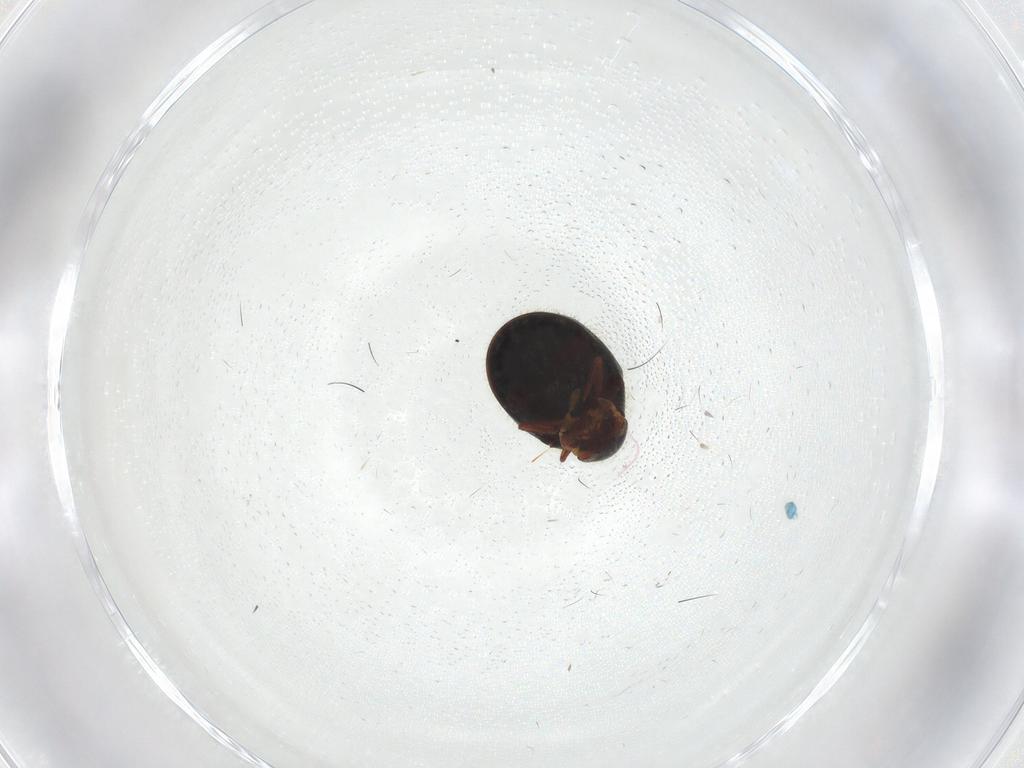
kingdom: Animalia
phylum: Arthropoda
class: Insecta
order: Coleoptera
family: Ptinidae
